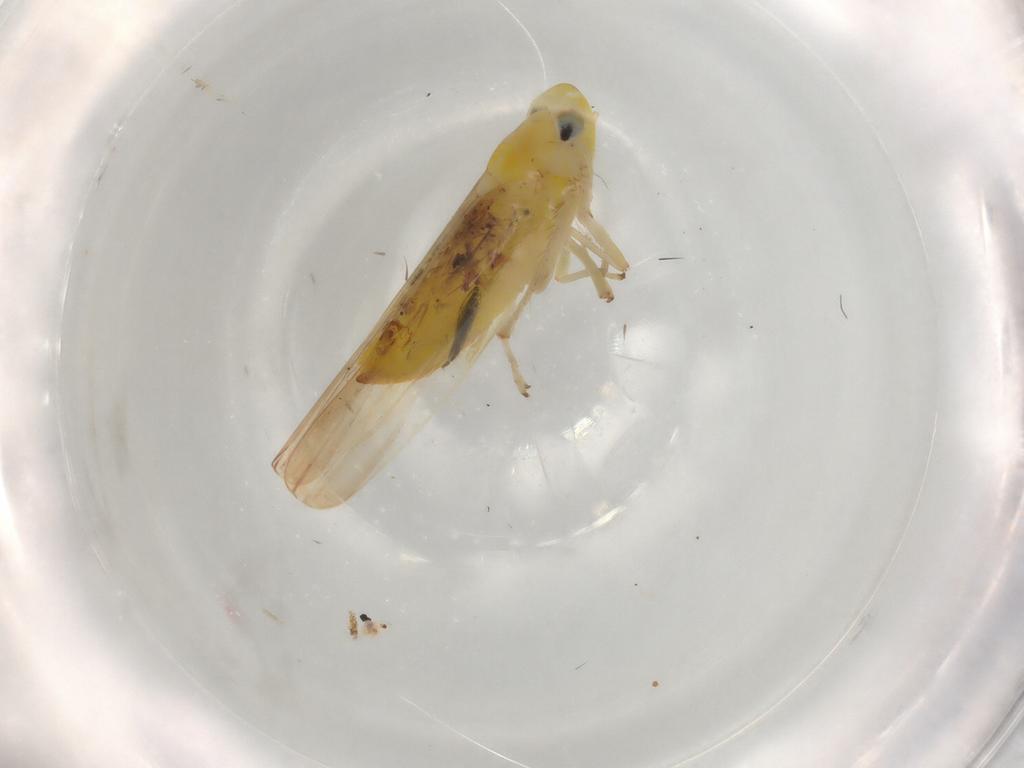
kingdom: Animalia
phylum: Arthropoda
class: Insecta
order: Hemiptera
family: Cicadellidae
